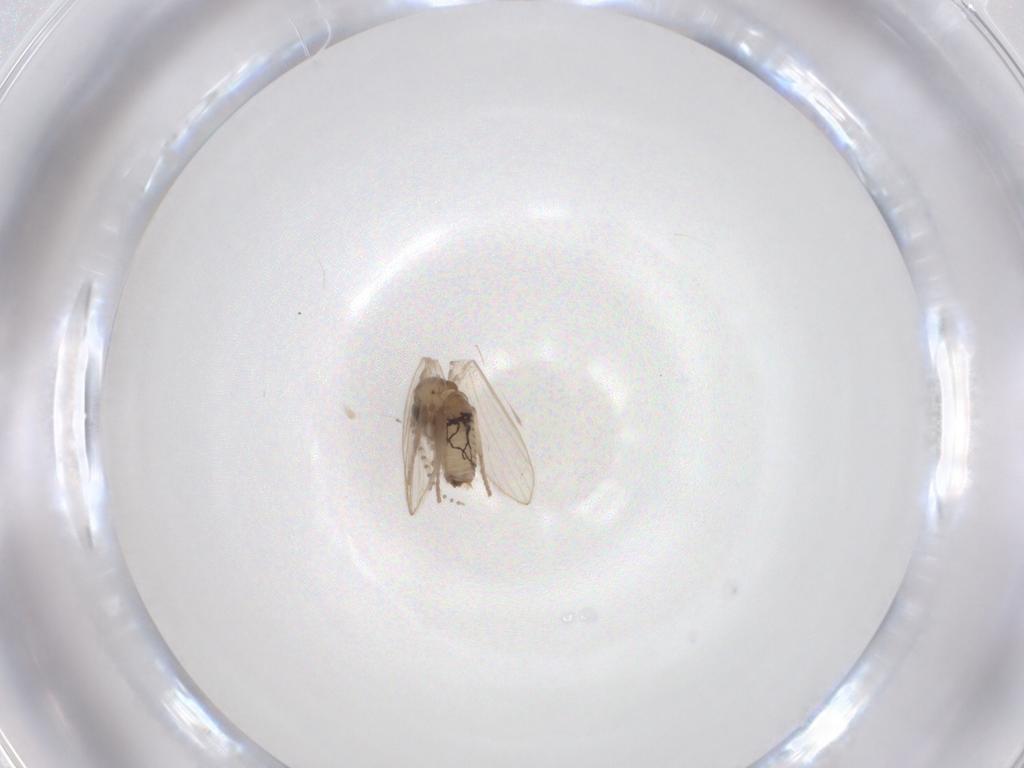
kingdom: Animalia
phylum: Arthropoda
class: Insecta
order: Diptera
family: Psychodidae
